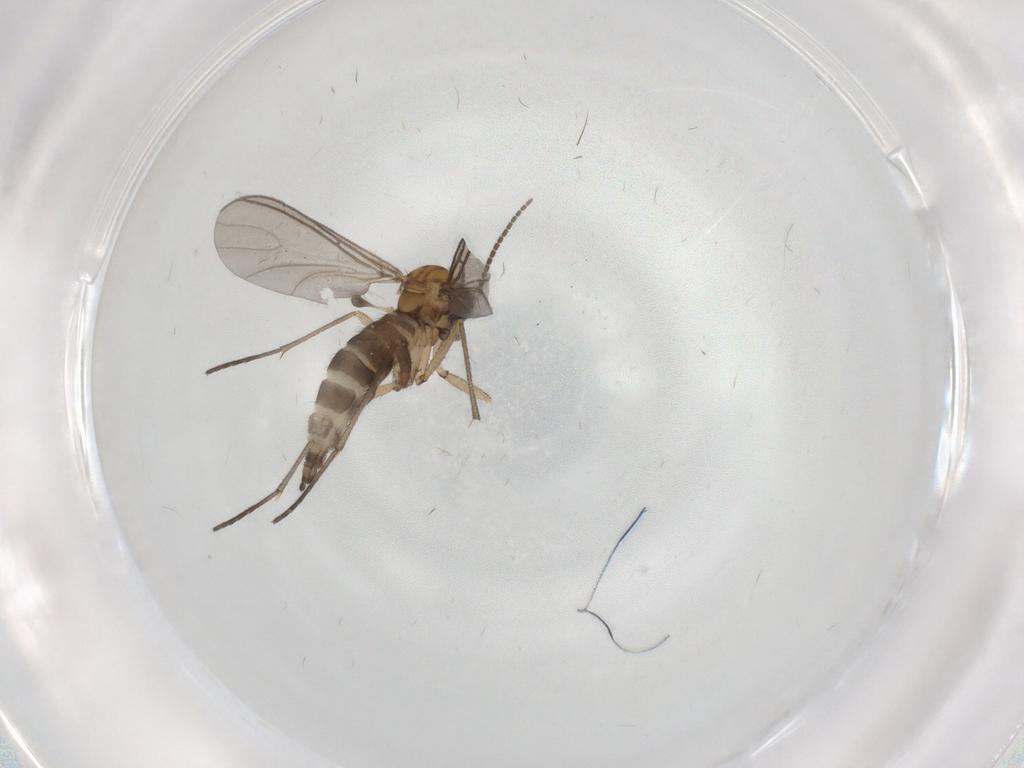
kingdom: Animalia
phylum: Arthropoda
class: Insecta
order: Diptera
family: Sciaridae
